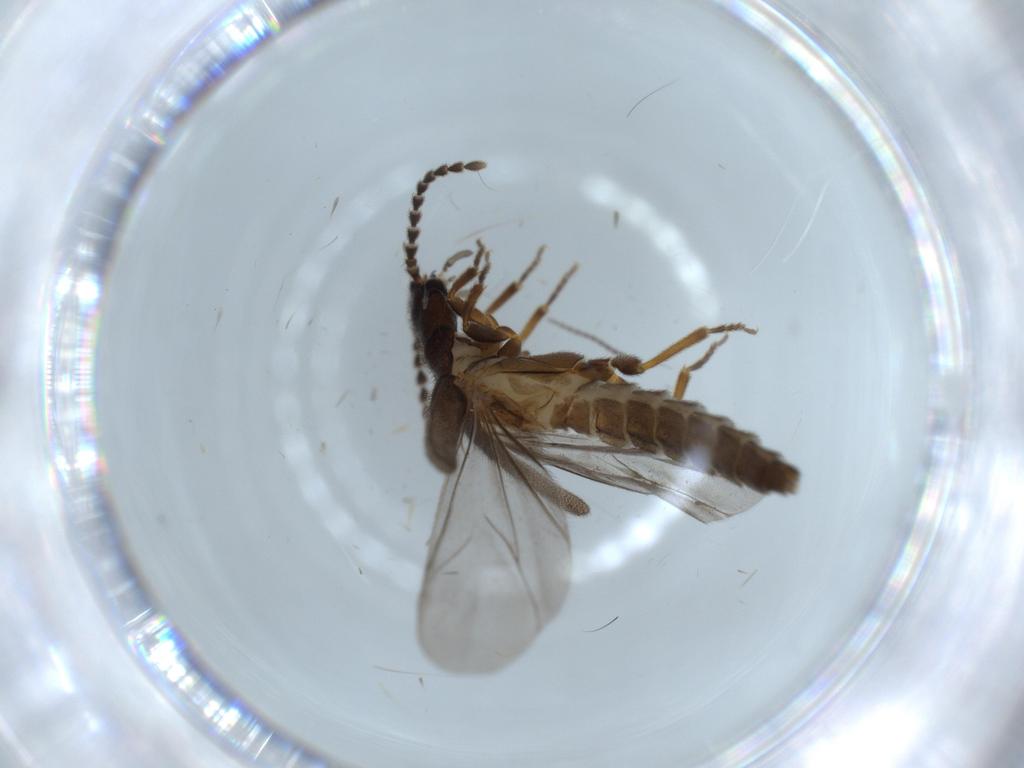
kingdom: Animalia
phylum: Arthropoda
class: Insecta
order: Coleoptera
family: Omethidae
